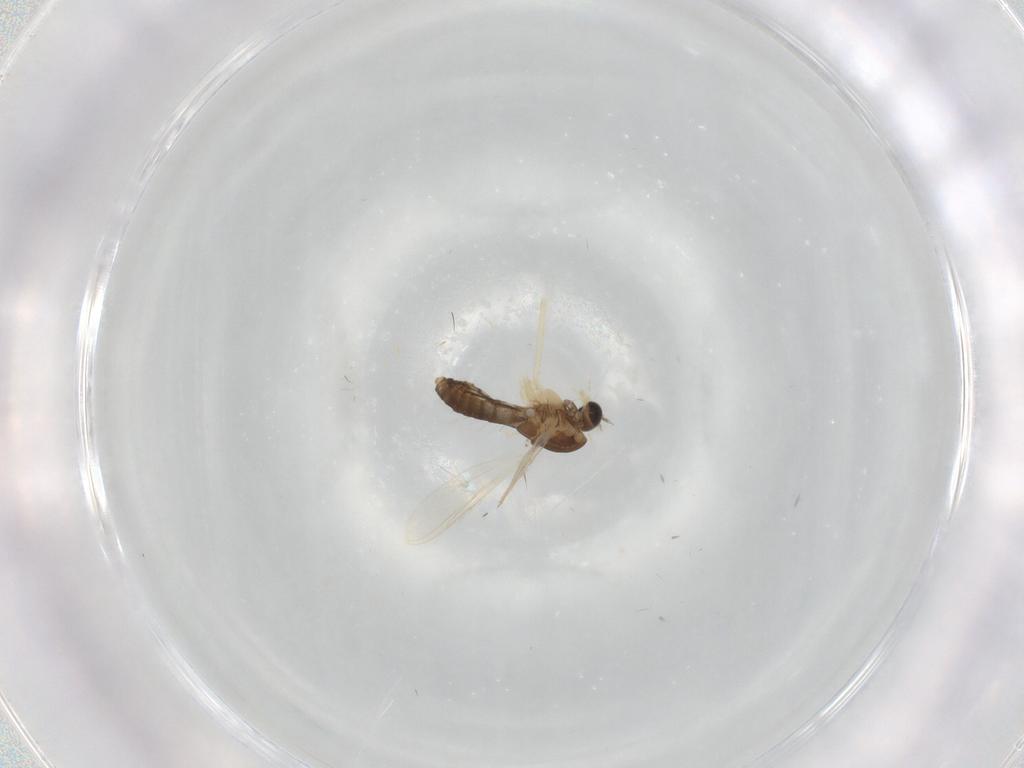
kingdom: Animalia
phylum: Arthropoda
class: Insecta
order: Diptera
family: Chironomidae
